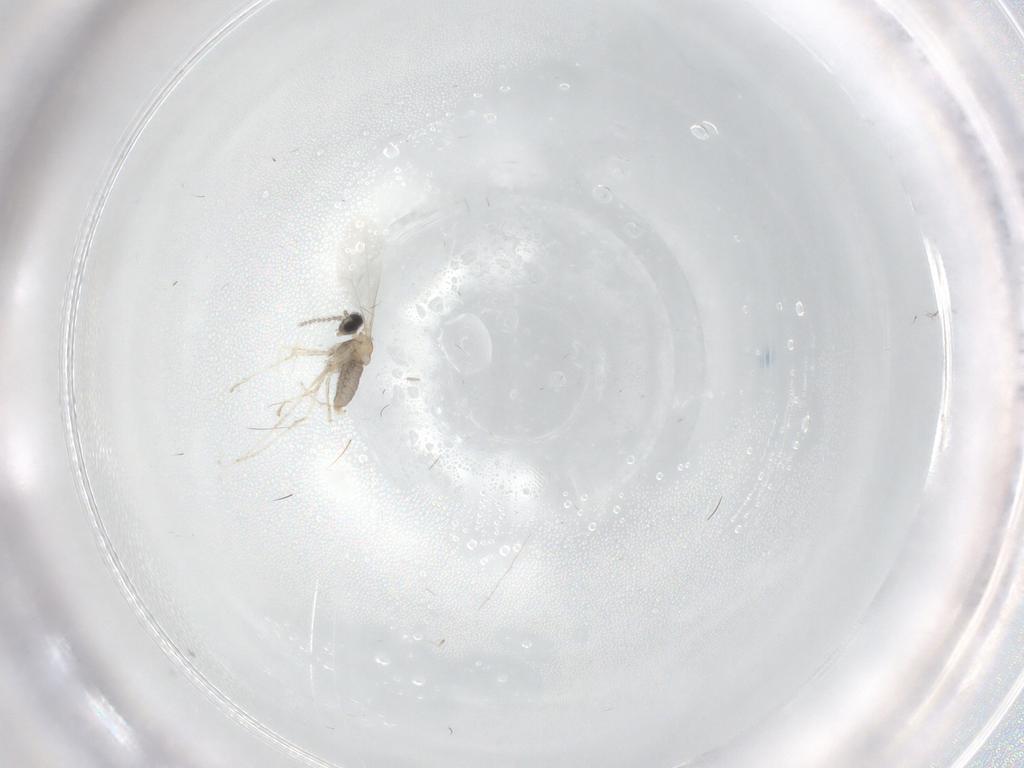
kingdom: Animalia
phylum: Arthropoda
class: Insecta
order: Diptera
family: Cecidomyiidae
